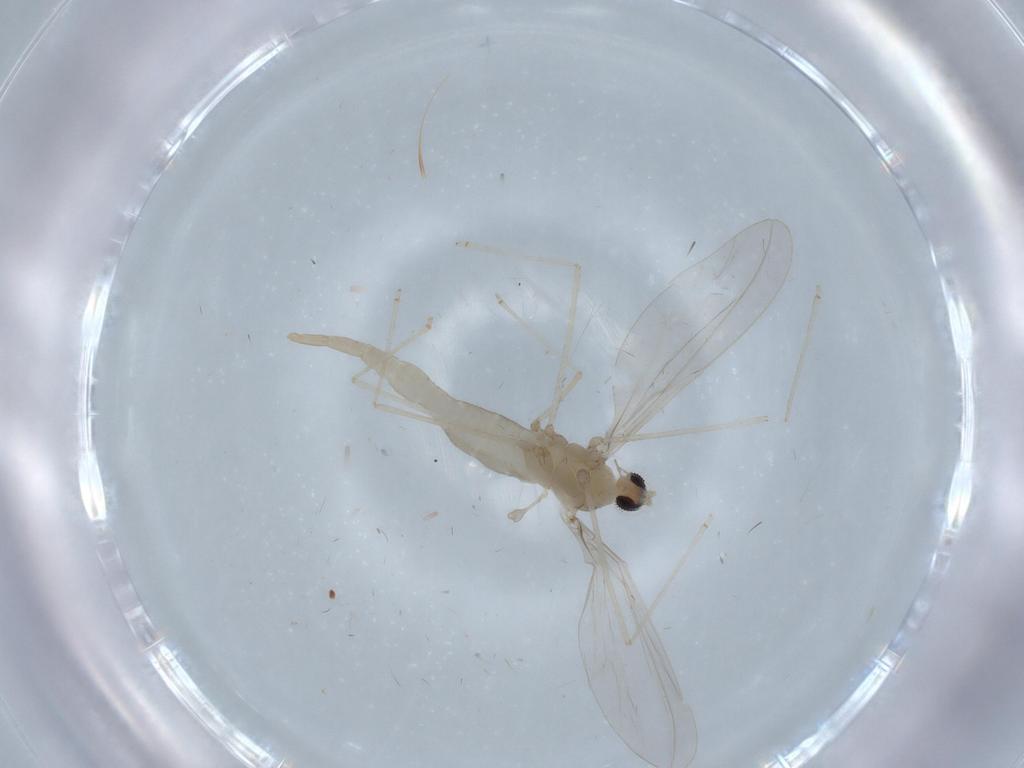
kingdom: Animalia
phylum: Arthropoda
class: Insecta
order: Diptera
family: Cecidomyiidae
